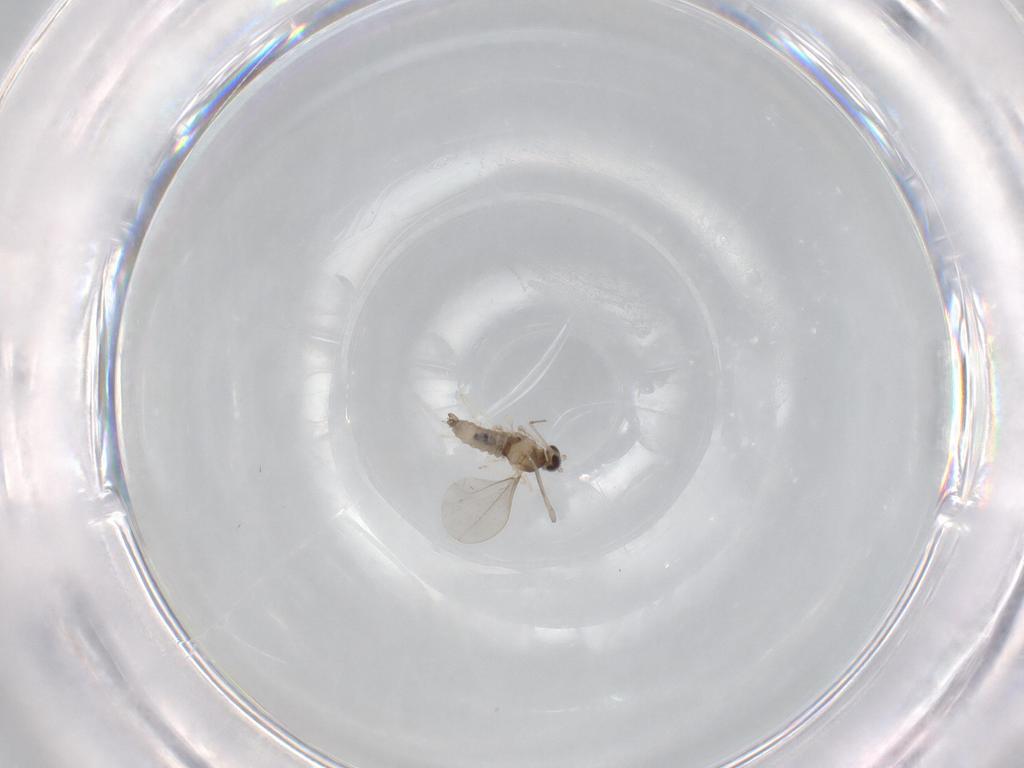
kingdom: Animalia
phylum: Arthropoda
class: Insecta
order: Diptera
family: Cecidomyiidae
